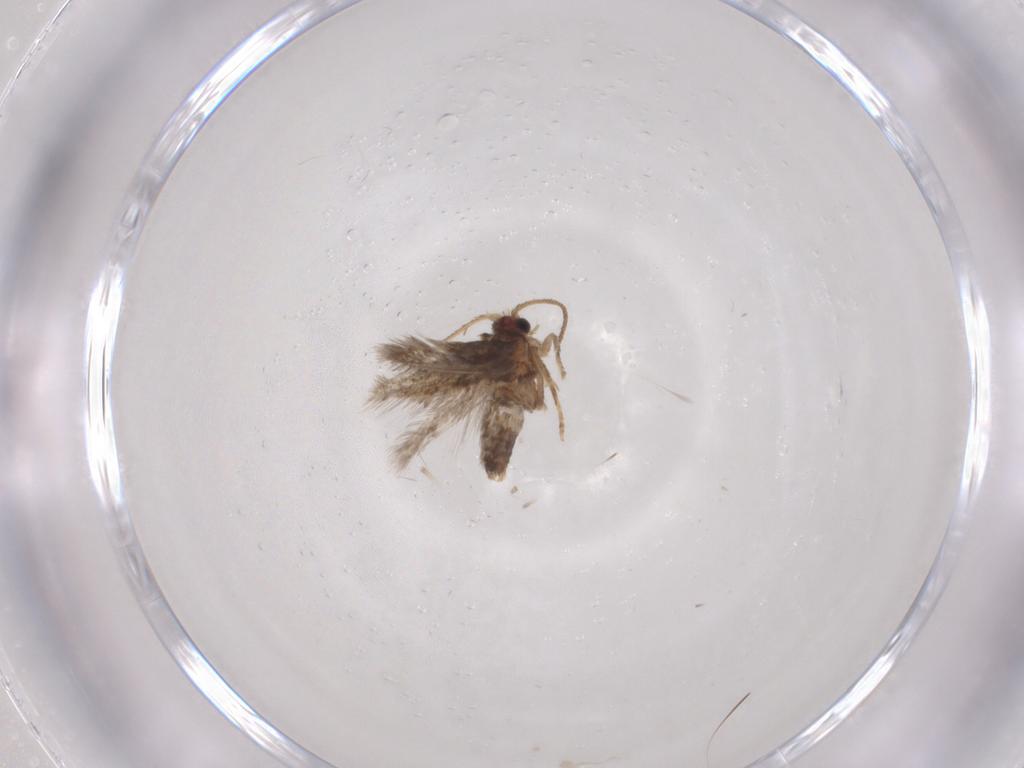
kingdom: Animalia
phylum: Arthropoda
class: Insecta
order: Lepidoptera
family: Nepticulidae
